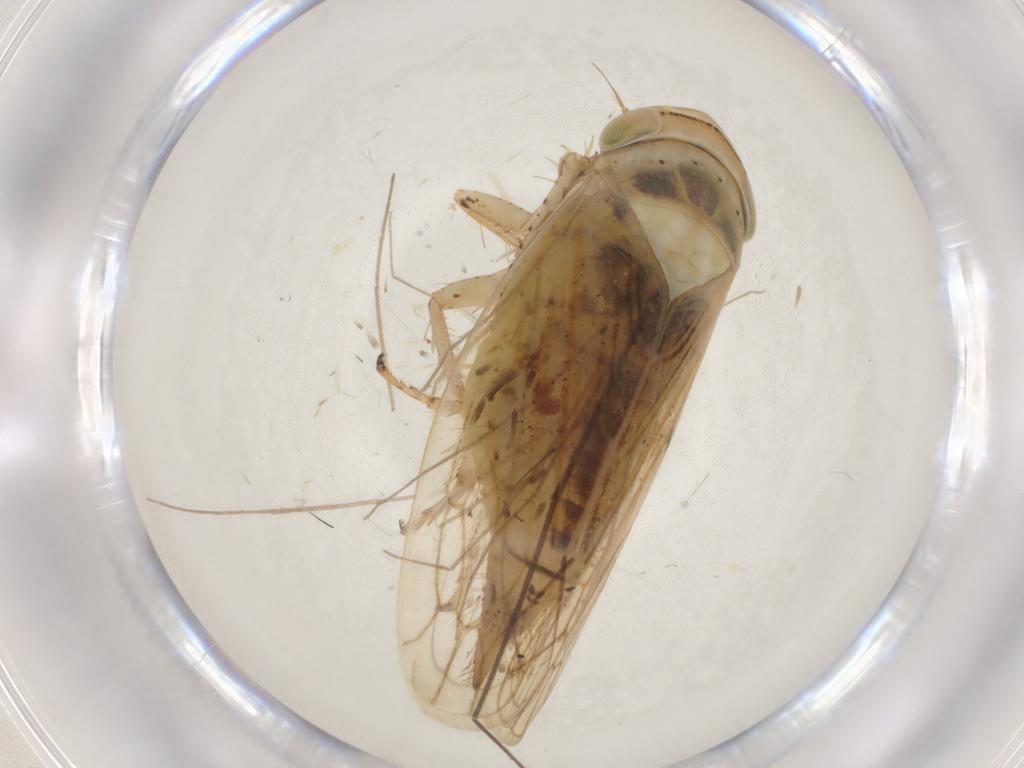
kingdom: Animalia
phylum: Arthropoda
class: Insecta
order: Hemiptera
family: Cicadellidae
